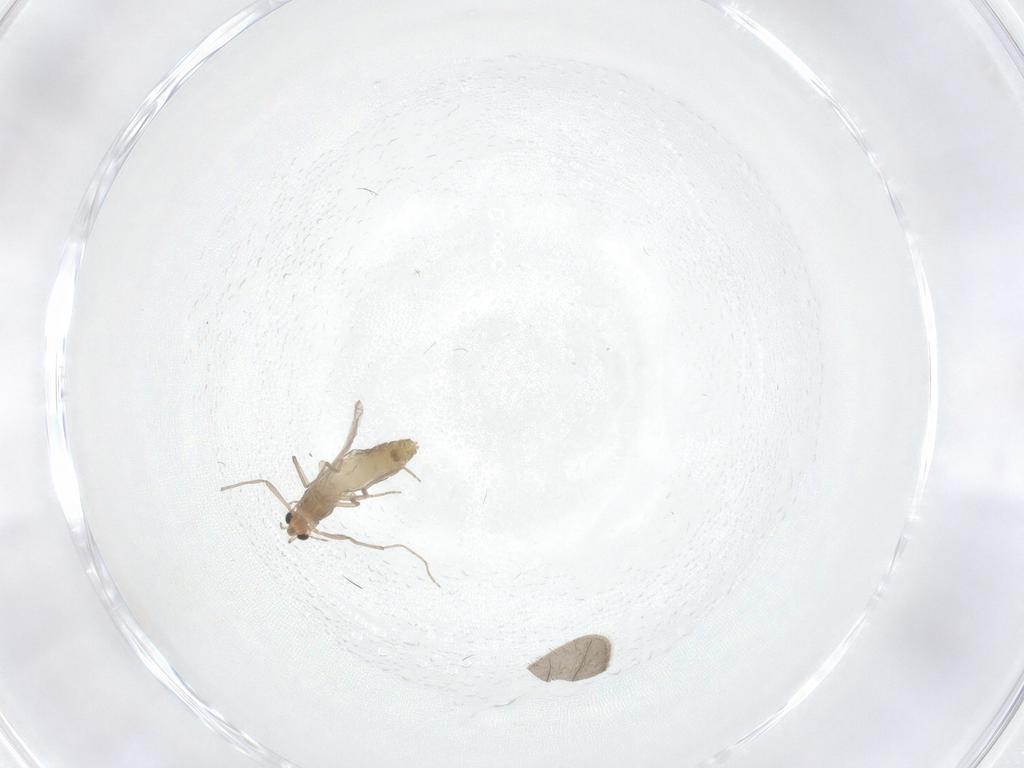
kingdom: Animalia
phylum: Arthropoda
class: Insecta
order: Diptera
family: Chironomidae
